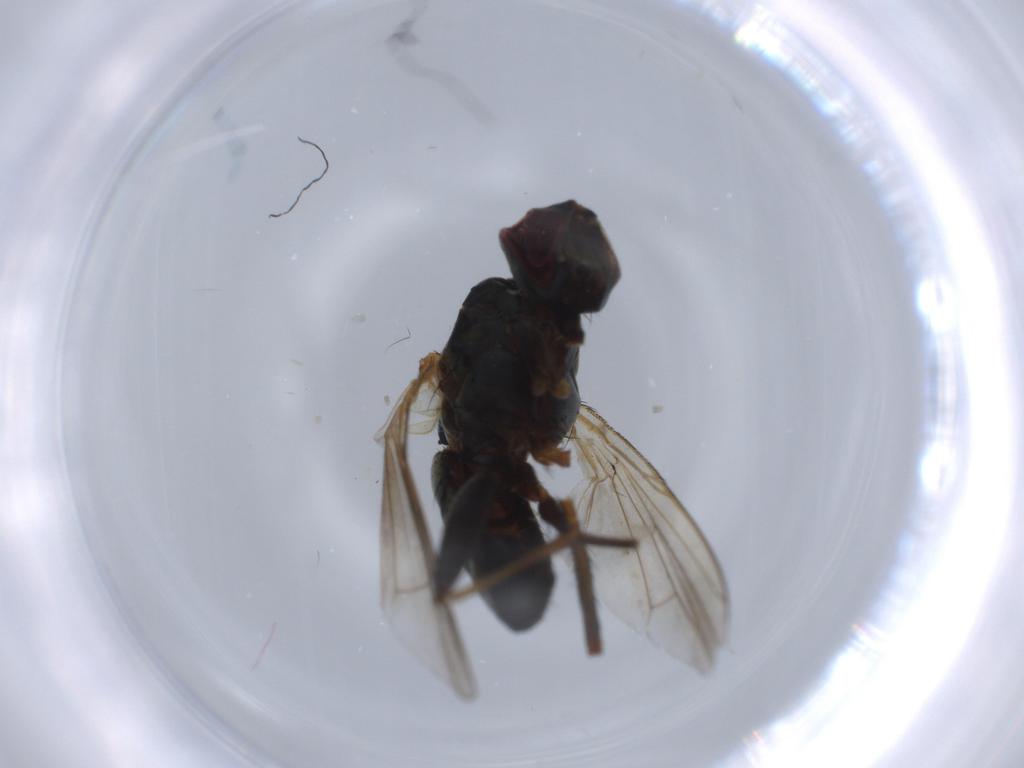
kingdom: Animalia
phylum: Arthropoda
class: Insecta
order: Diptera
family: Muscidae
